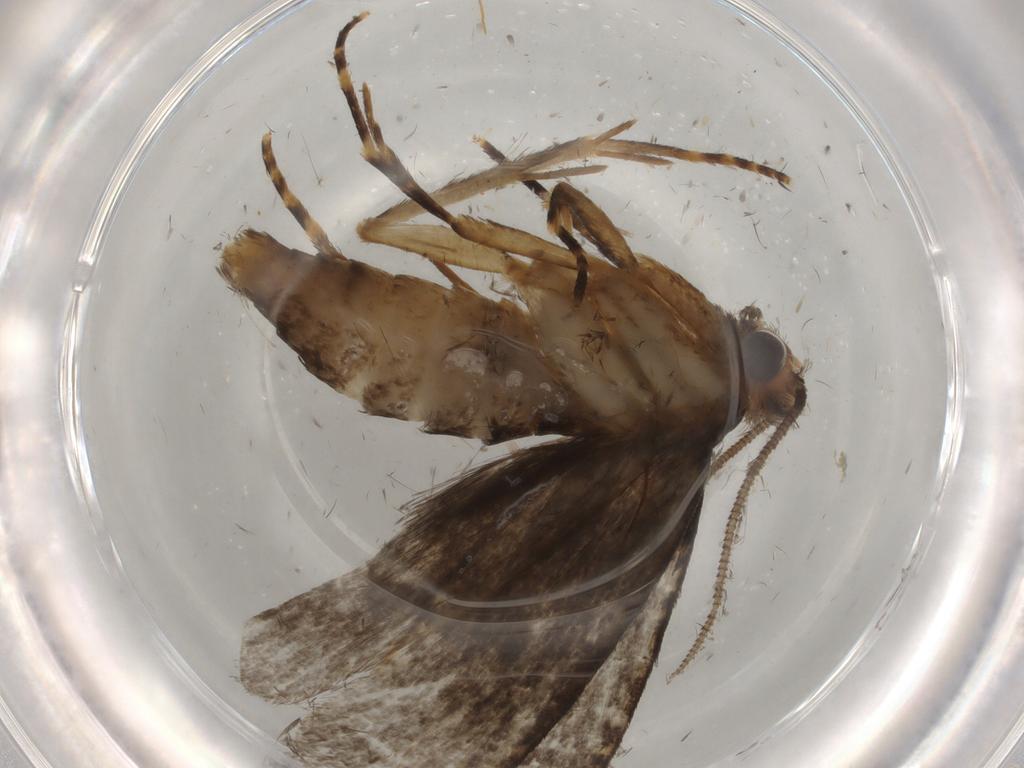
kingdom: Animalia
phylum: Arthropoda
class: Insecta
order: Lepidoptera
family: Tineidae
